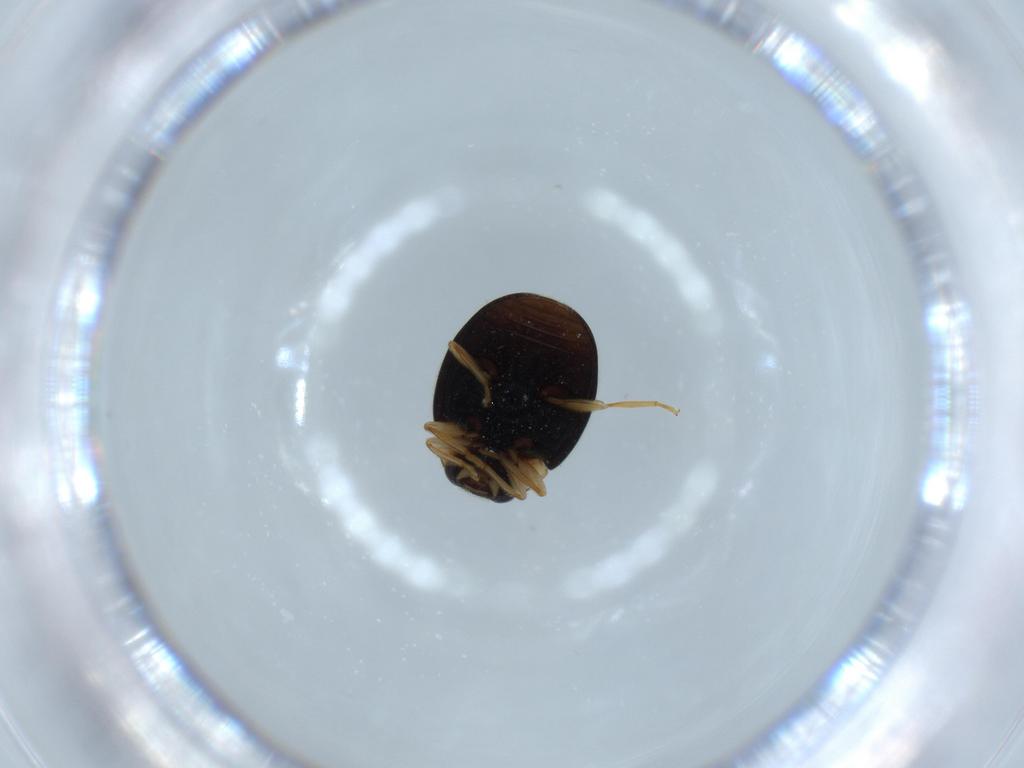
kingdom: Animalia
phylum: Arthropoda
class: Insecta
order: Coleoptera
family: Coccinellidae
